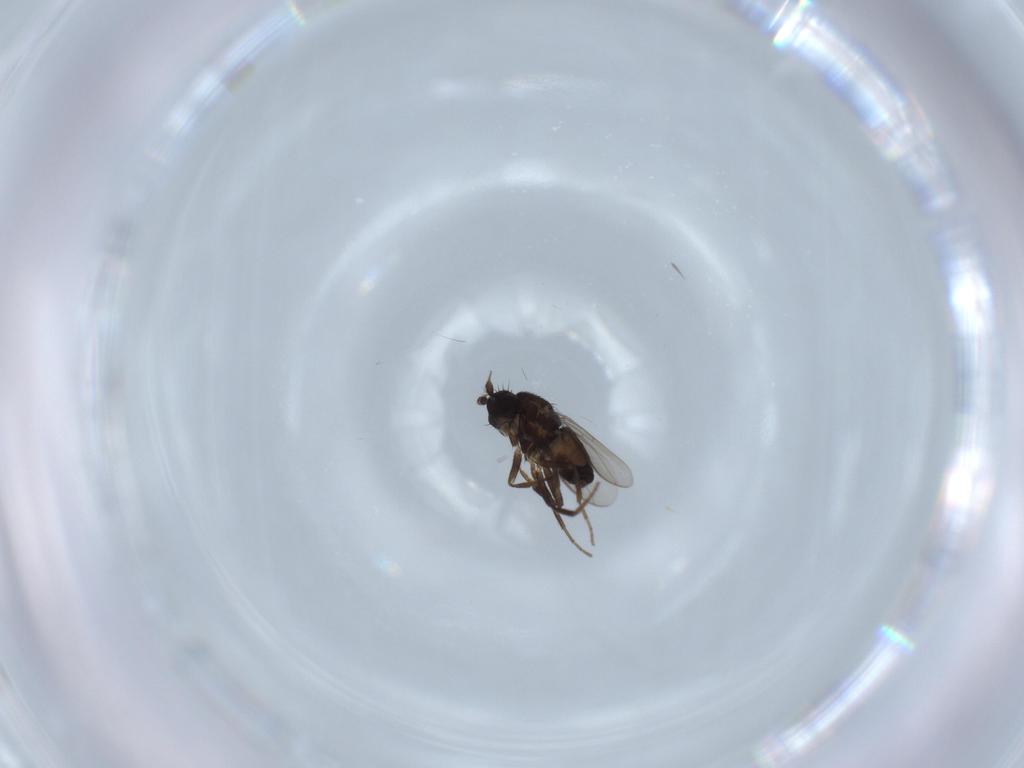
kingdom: Animalia
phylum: Arthropoda
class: Insecta
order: Diptera
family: Sphaeroceridae
